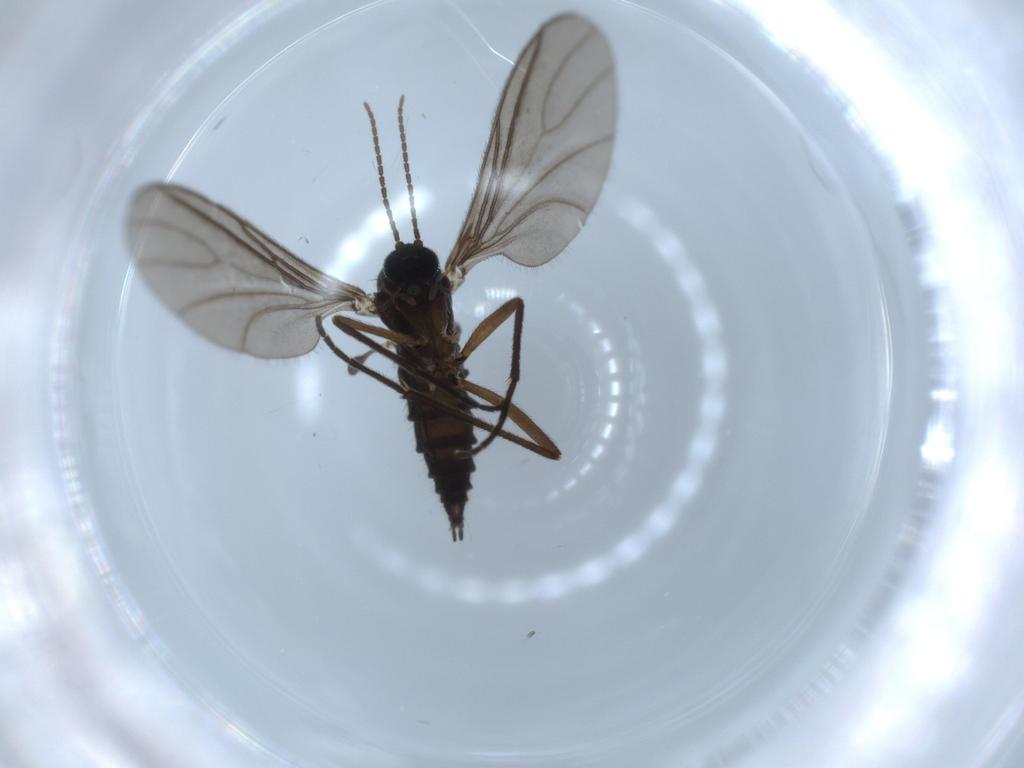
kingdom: Animalia
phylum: Arthropoda
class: Insecta
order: Diptera
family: Sciaridae
